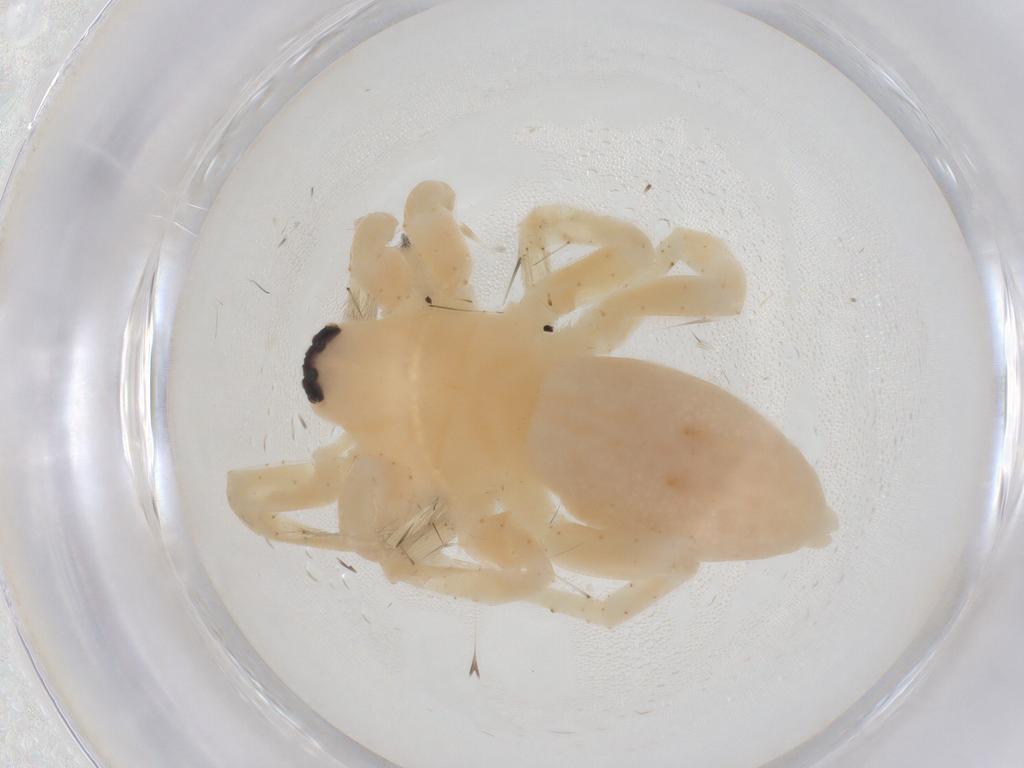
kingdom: Animalia
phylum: Arthropoda
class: Arachnida
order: Araneae
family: Anyphaenidae
